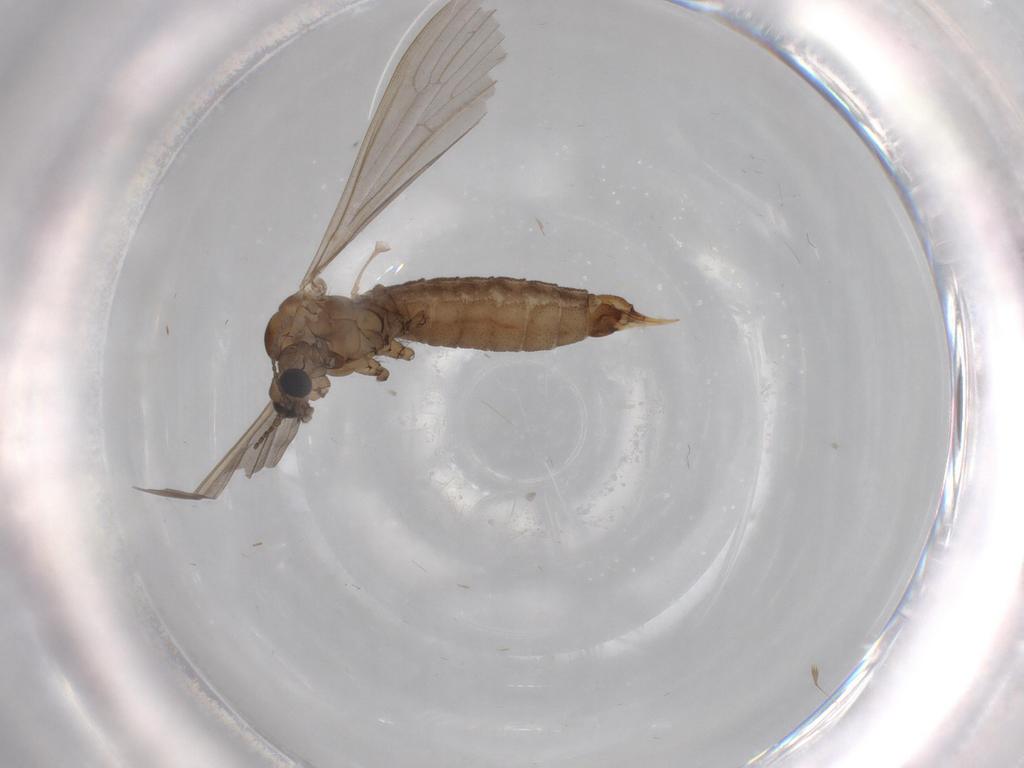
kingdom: Animalia
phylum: Arthropoda
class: Insecta
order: Diptera
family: Limoniidae
